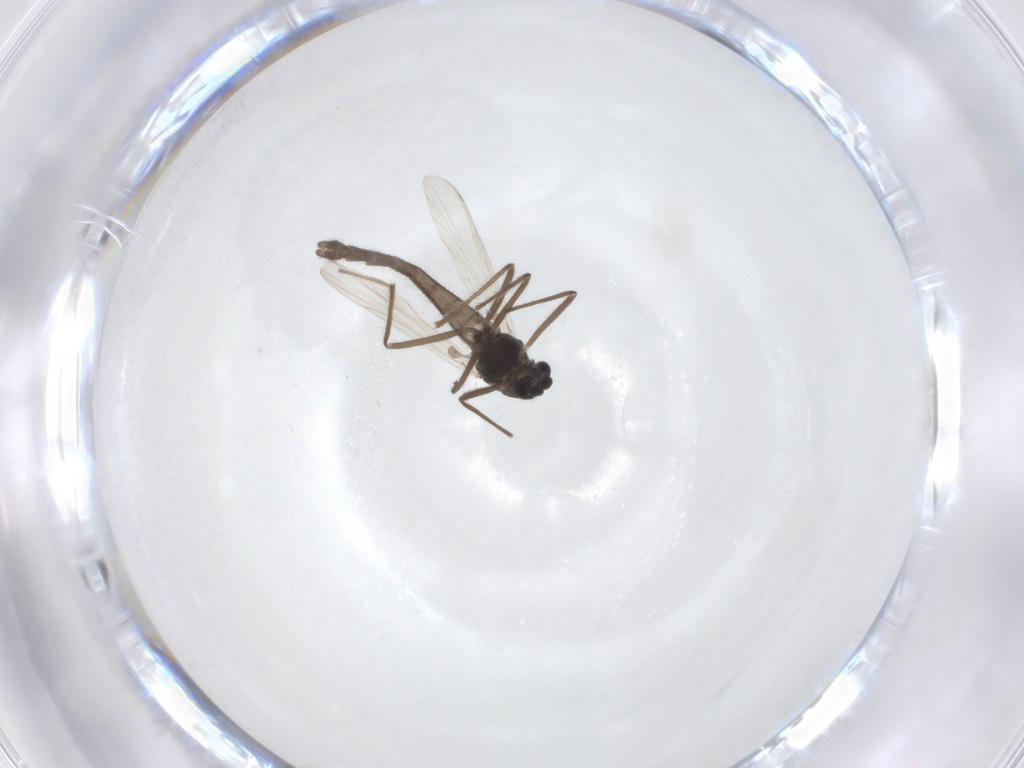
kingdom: Animalia
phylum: Arthropoda
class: Insecta
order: Diptera
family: Chironomidae
